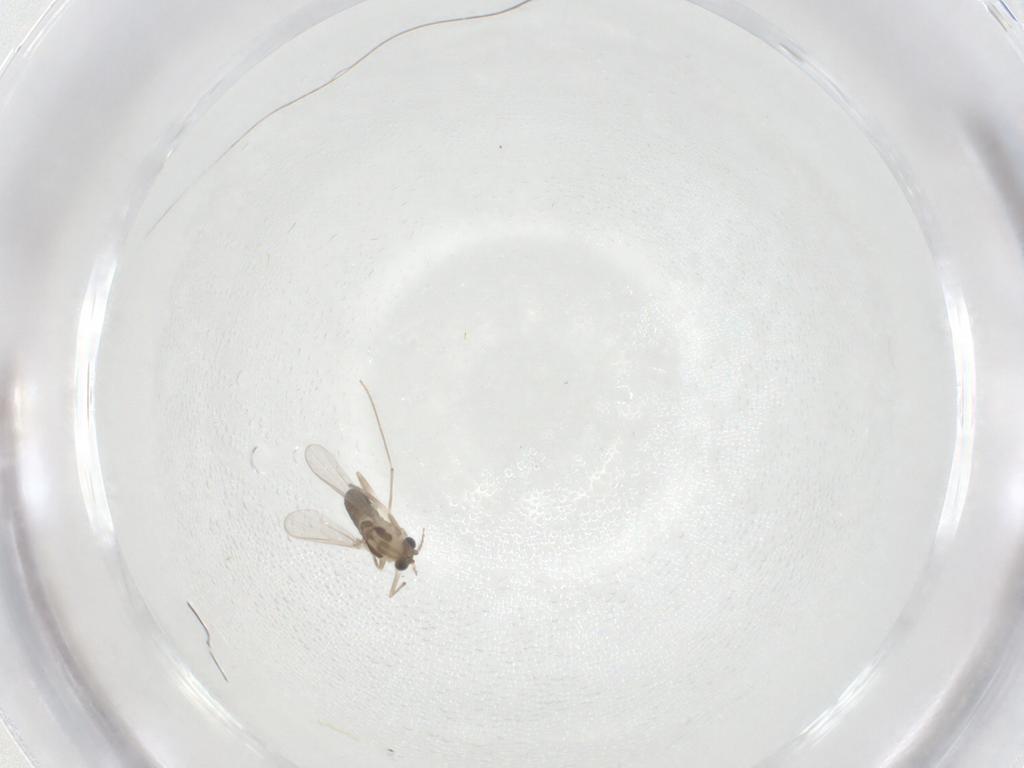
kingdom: Animalia
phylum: Arthropoda
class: Insecta
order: Diptera
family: Chironomidae
